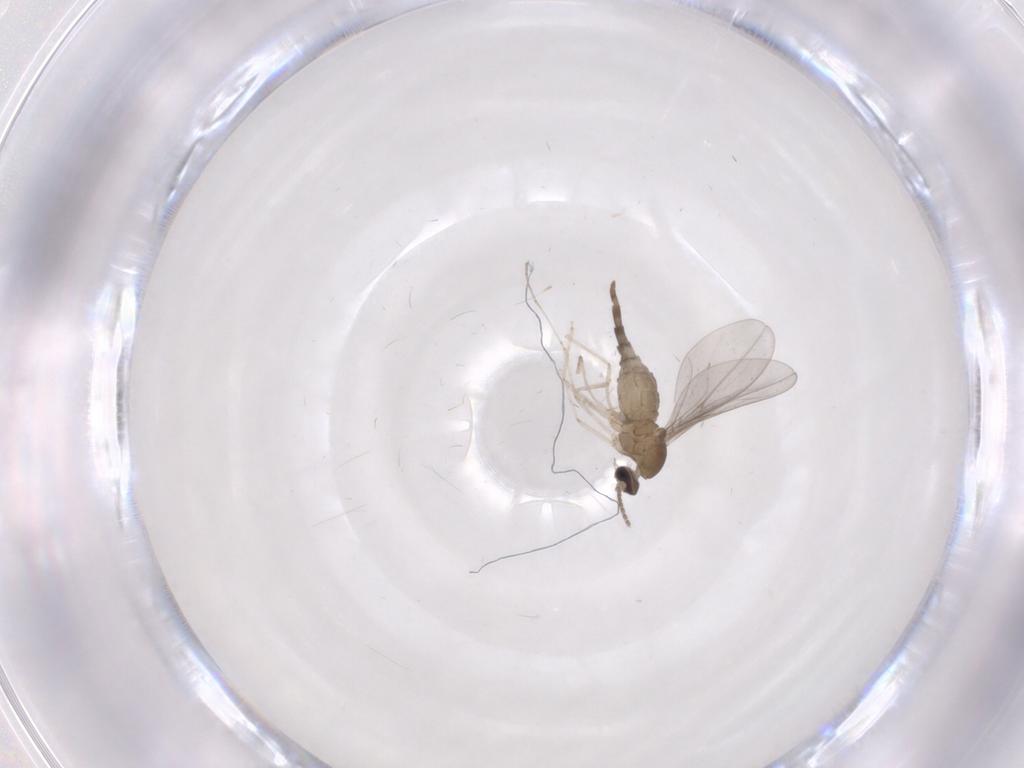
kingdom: Animalia
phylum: Arthropoda
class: Insecta
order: Diptera
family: Cecidomyiidae
